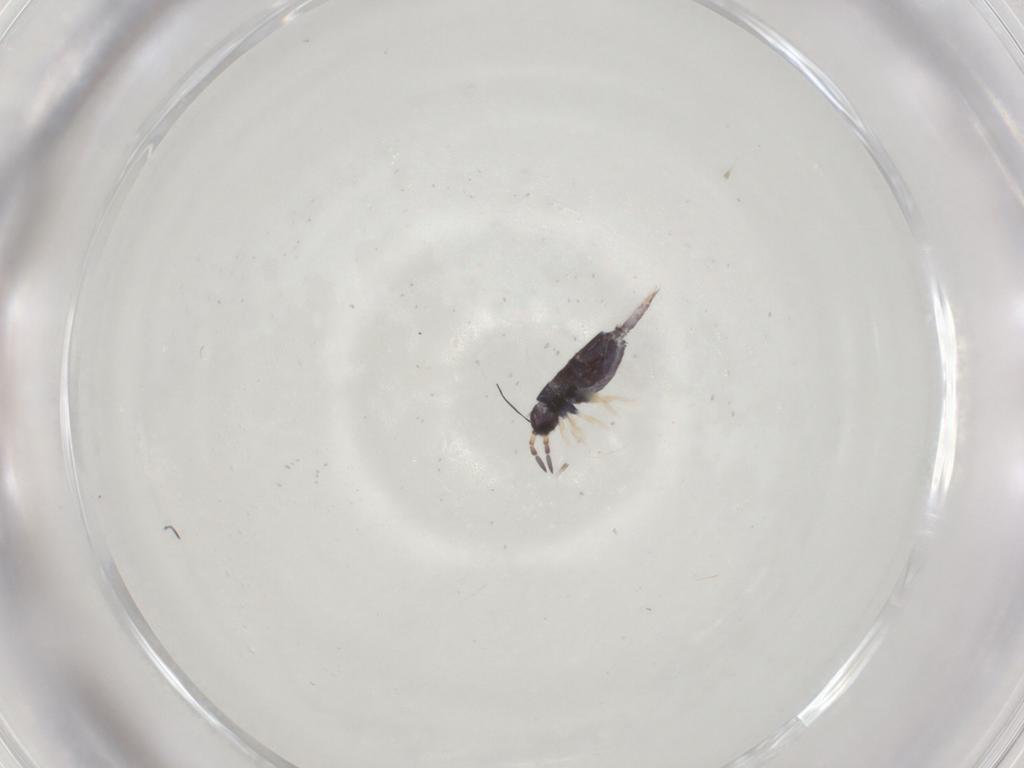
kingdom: Animalia
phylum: Arthropoda
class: Collembola
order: Entomobryomorpha
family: Entomobryidae
